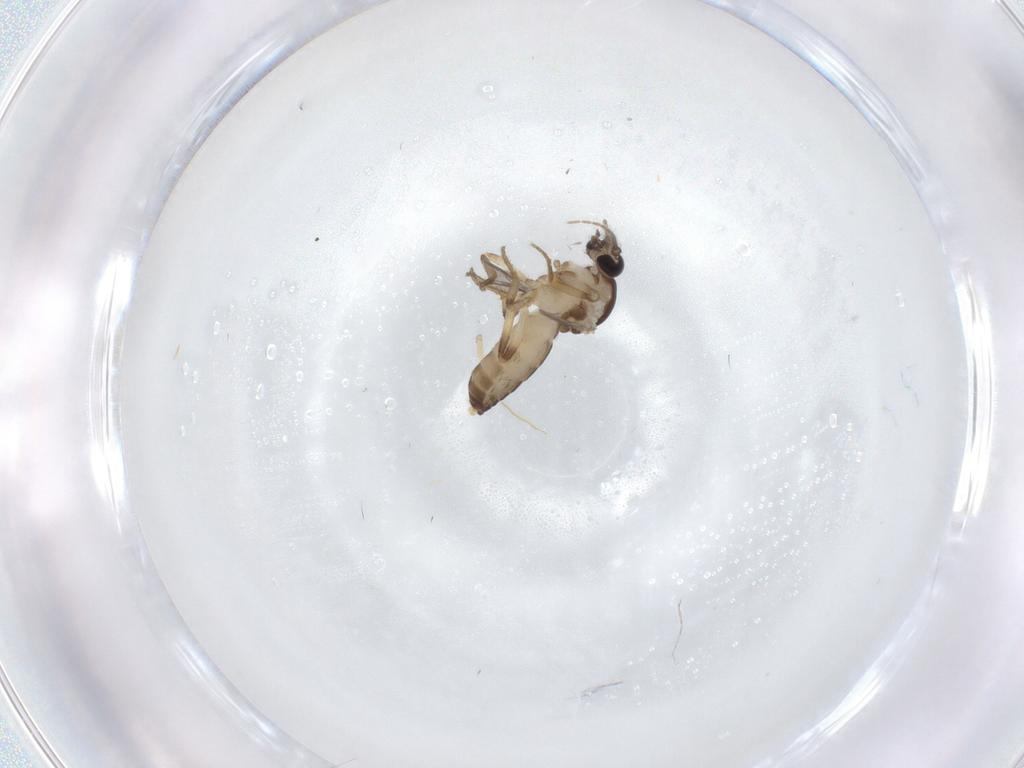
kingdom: Animalia
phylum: Arthropoda
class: Insecta
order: Diptera
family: Ceratopogonidae
